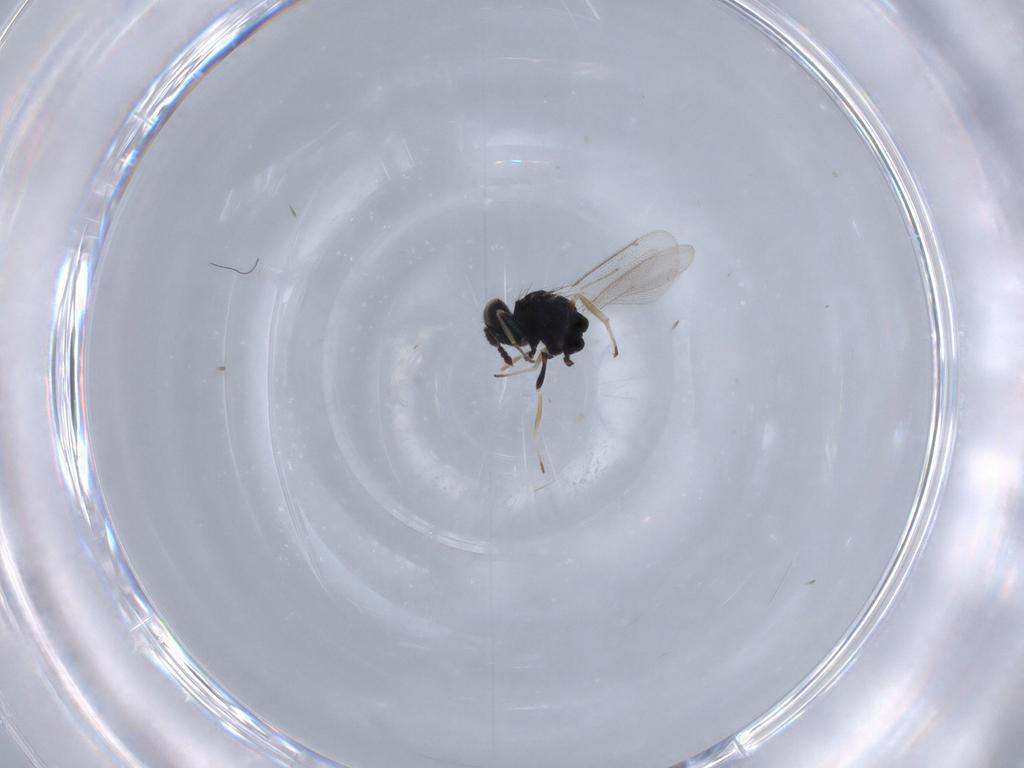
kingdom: Animalia
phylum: Arthropoda
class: Insecta
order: Hymenoptera
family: Eulophidae
